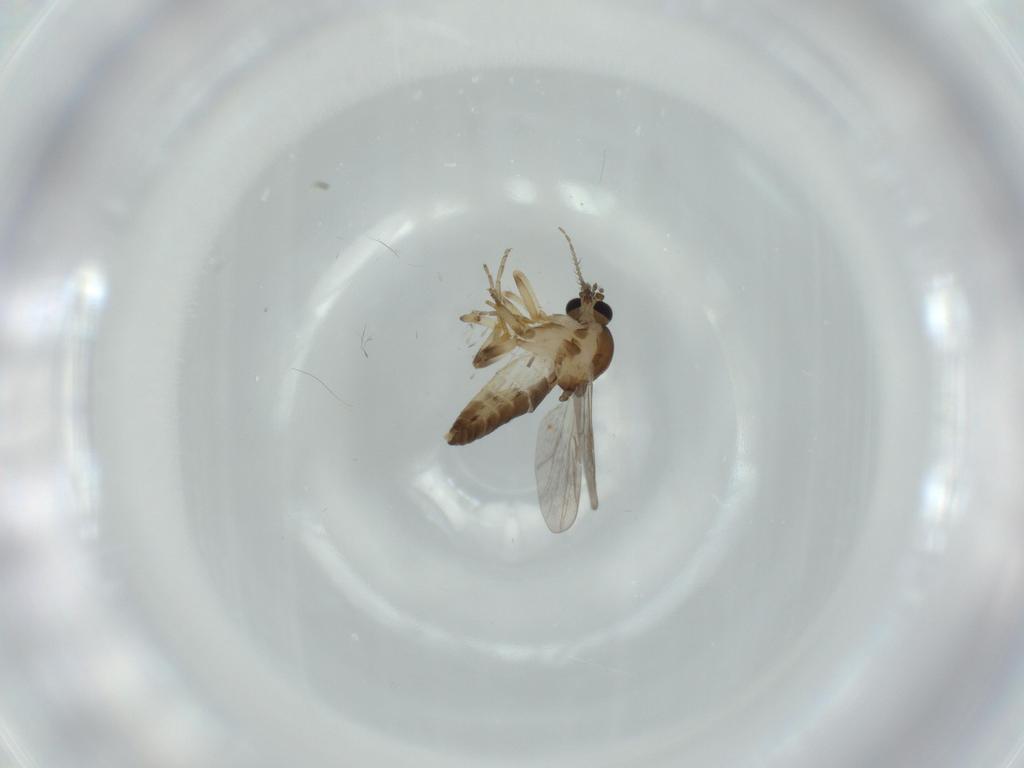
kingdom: Animalia
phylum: Arthropoda
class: Insecta
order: Diptera
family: Ceratopogonidae
